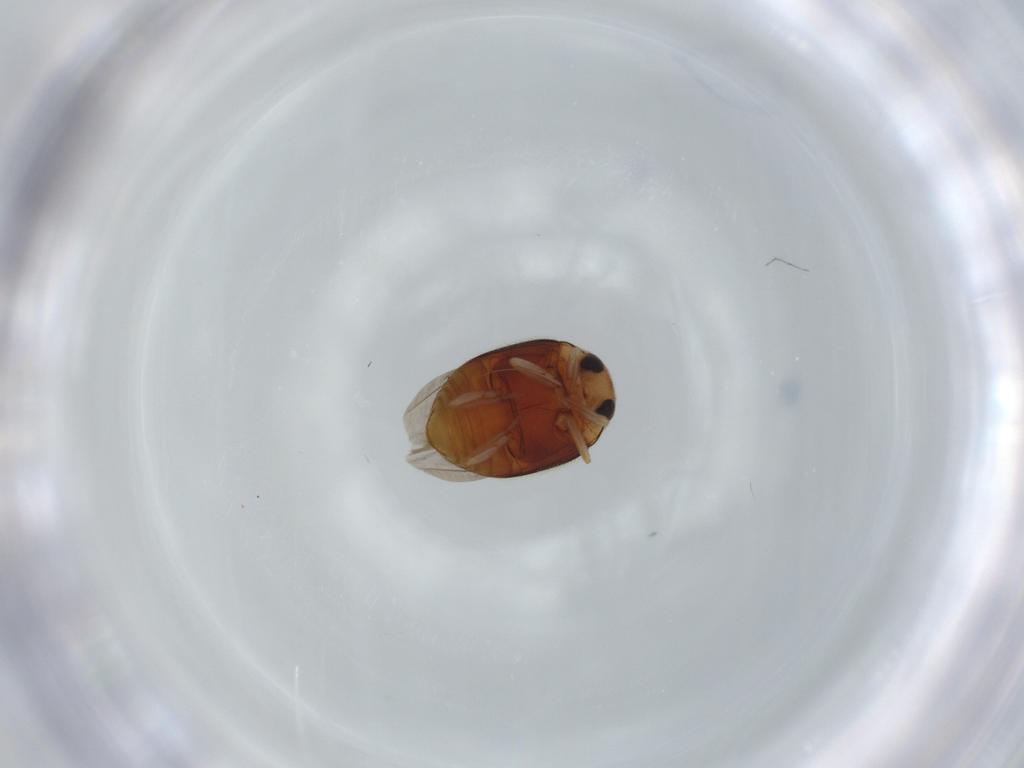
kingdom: Animalia
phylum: Arthropoda
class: Insecta
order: Coleoptera
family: Coccinellidae
